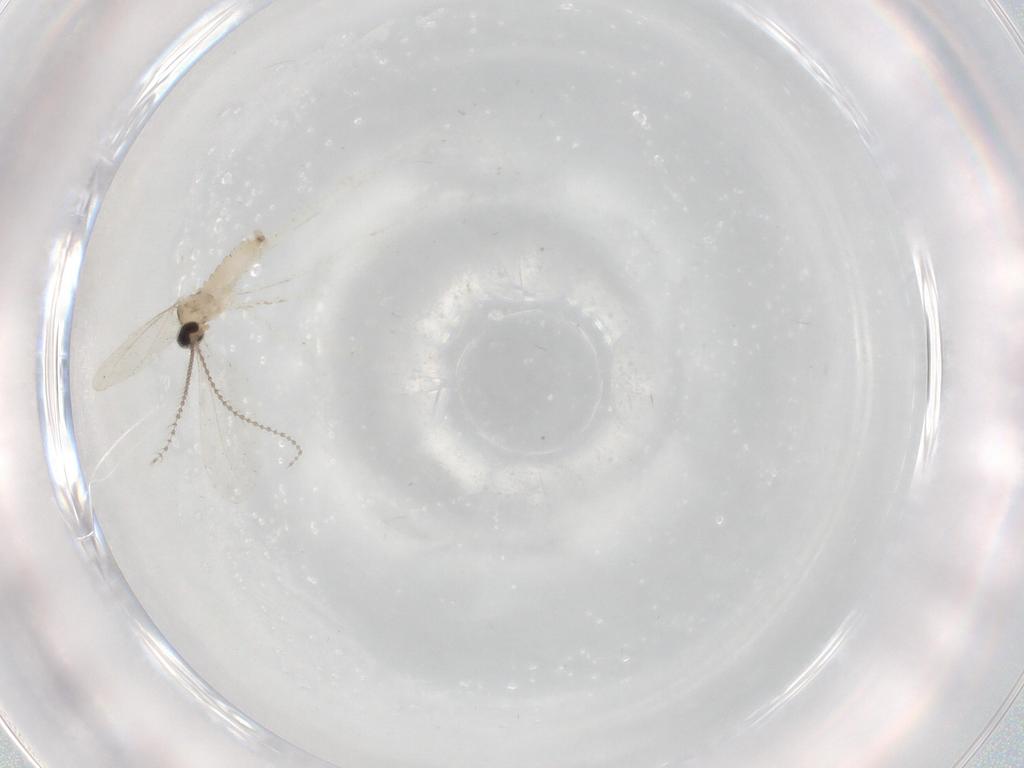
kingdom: Animalia
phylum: Arthropoda
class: Insecta
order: Diptera
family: Cecidomyiidae
